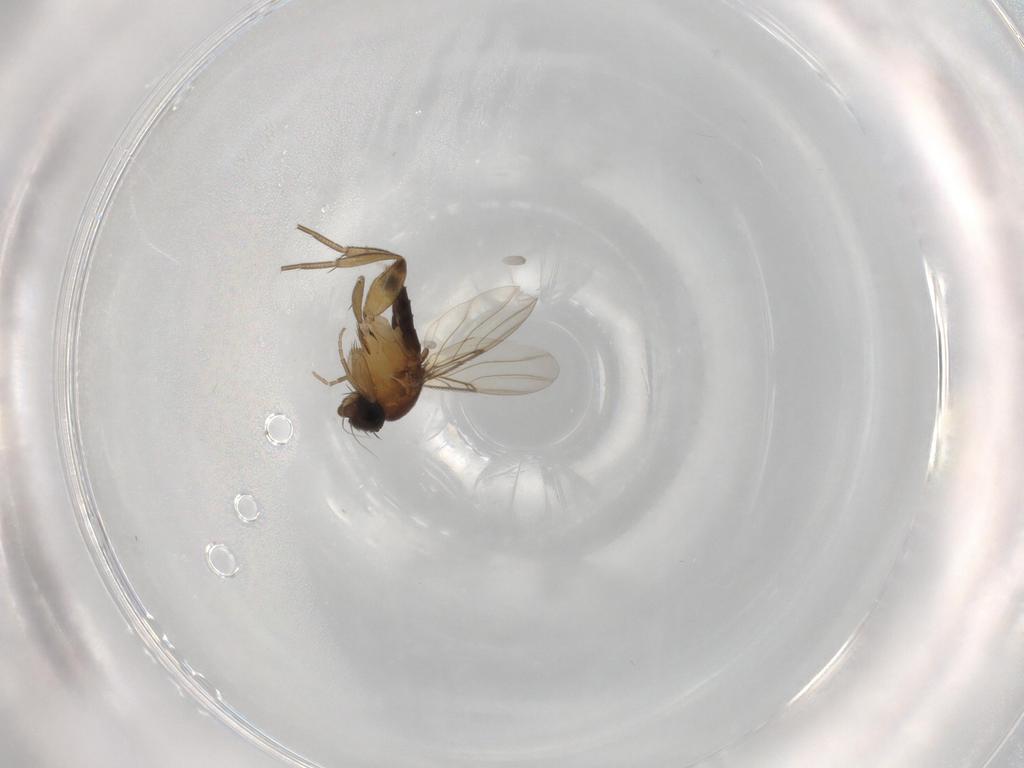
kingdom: Animalia
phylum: Arthropoda
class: Insecta
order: Diptera
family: Phoridae
